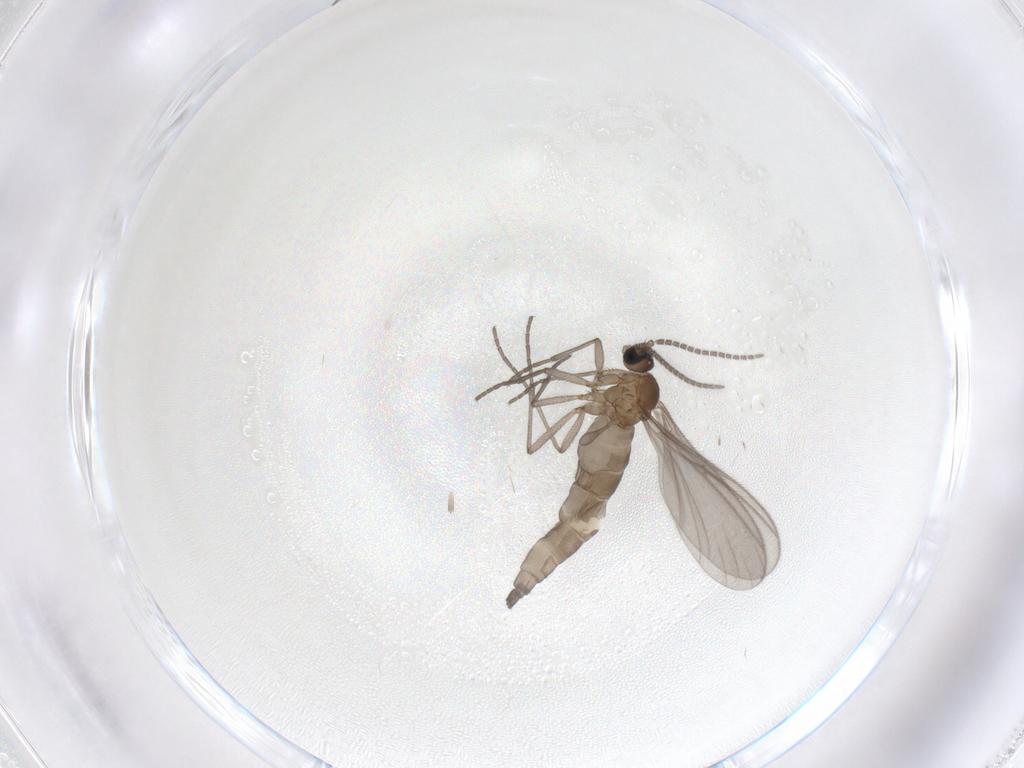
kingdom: Animalia
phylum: Arthropoda
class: Insecta
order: Diptera
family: Sciaridae
